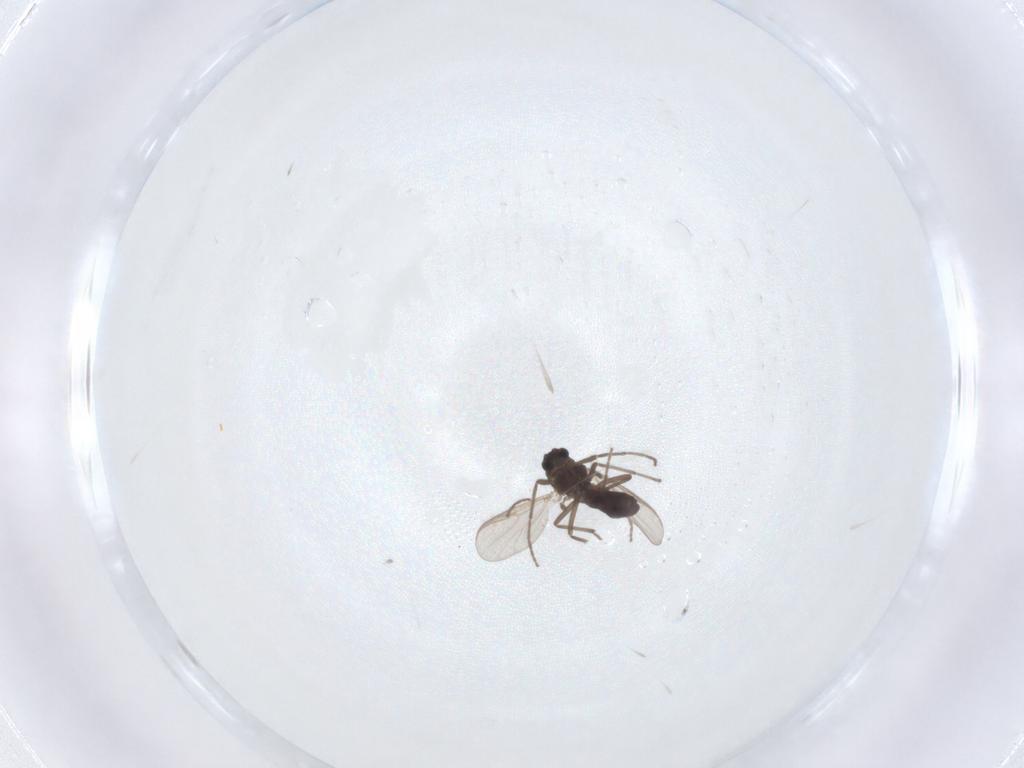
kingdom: Animalia
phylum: Arthropoda
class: Insecta
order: Diptera
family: Chironomidae
